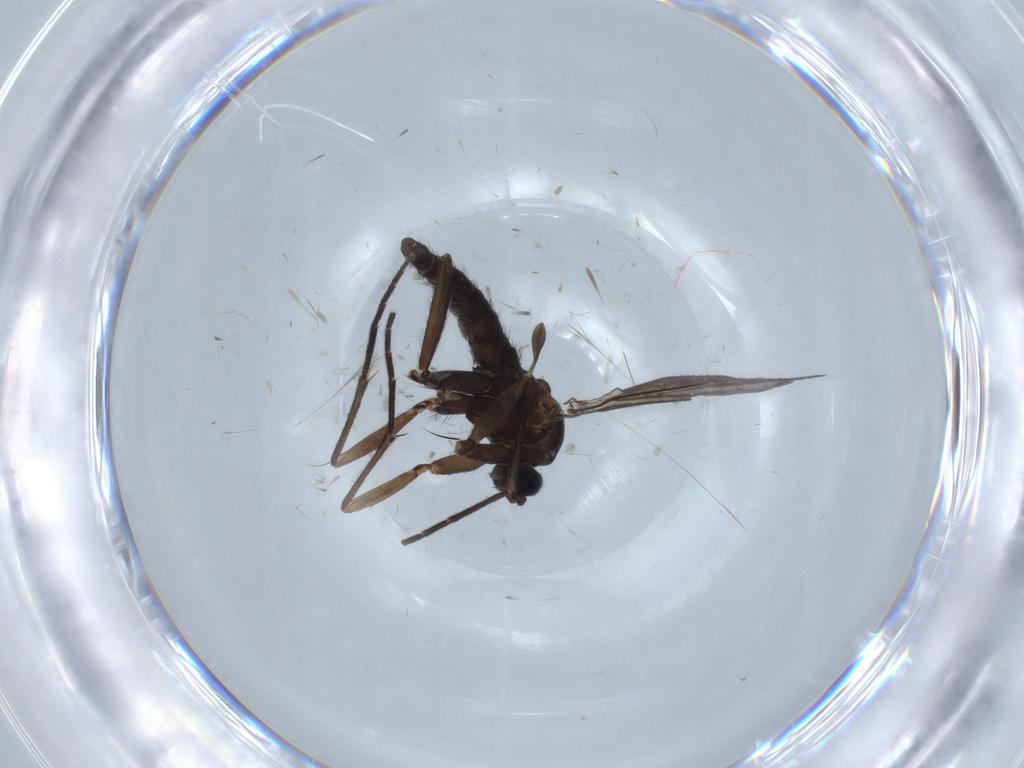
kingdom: Animalia
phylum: Arthropoda
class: Insecta
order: Diptera
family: Sciaridae
